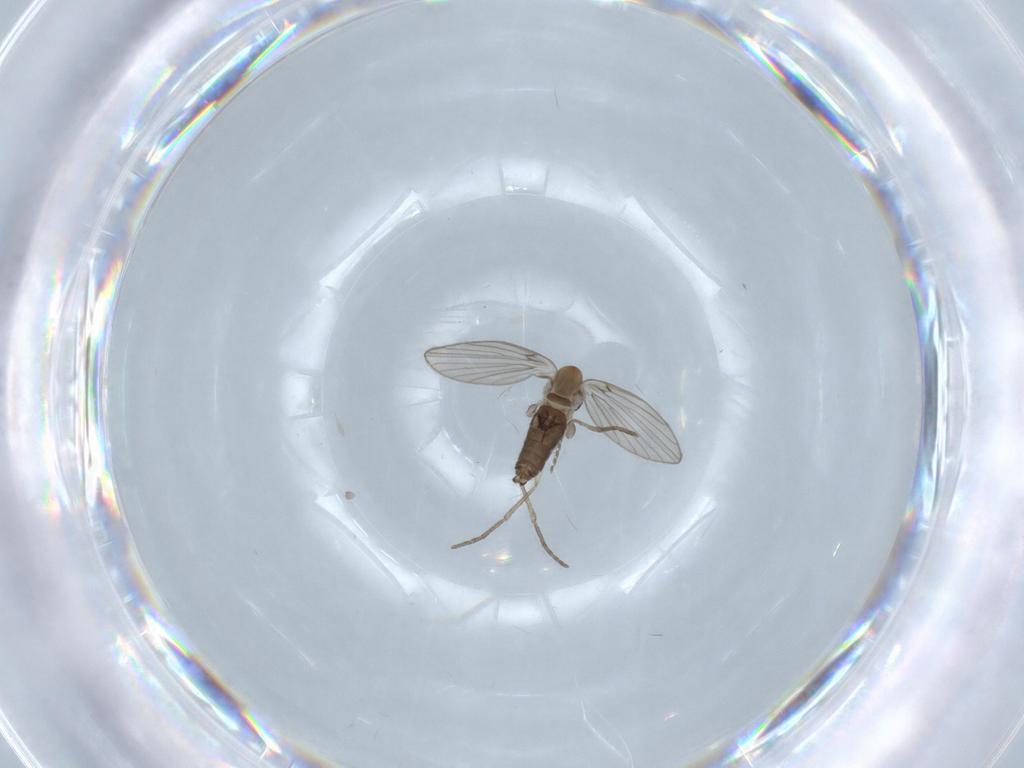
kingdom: Animalia
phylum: Arthropoda
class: Insecta
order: Diptera
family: Psychodidae
